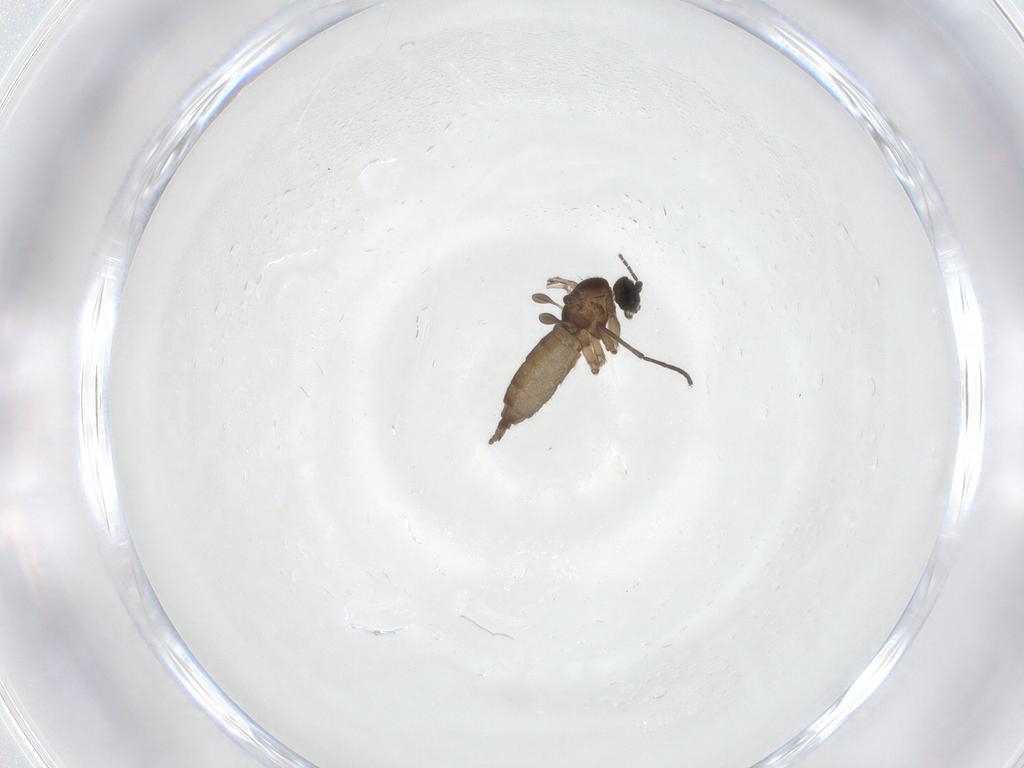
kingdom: Animalia
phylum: Arthropoda
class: Insecta
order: Diptera
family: Sciaridae
